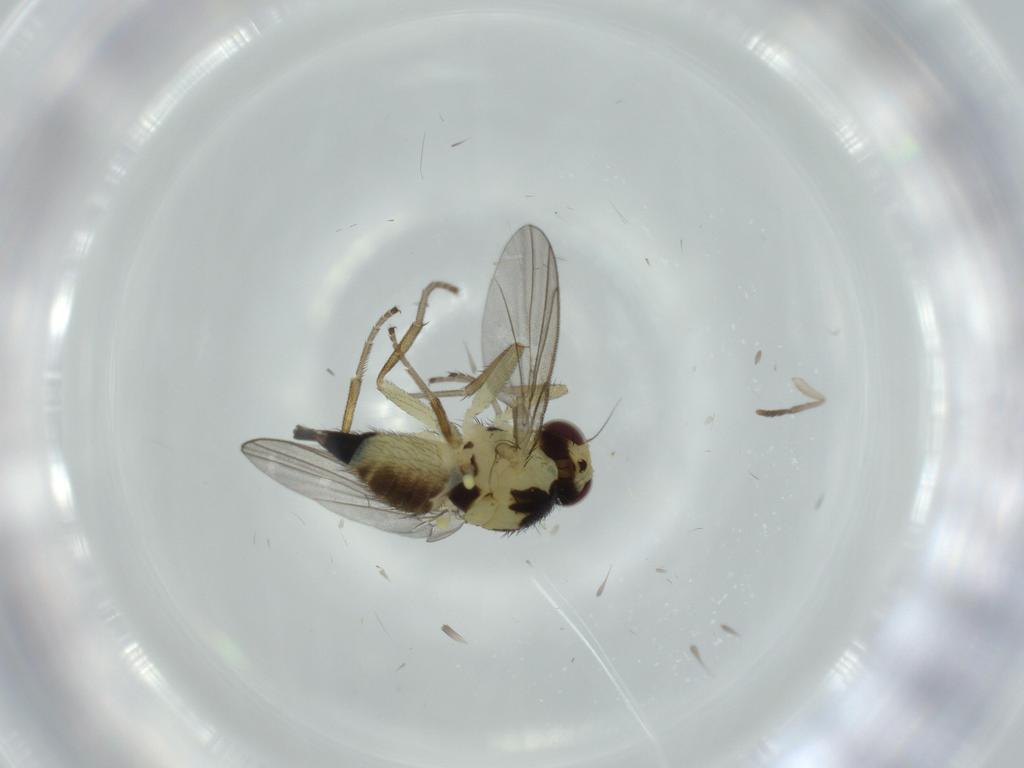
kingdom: Animalia
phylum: Arthropoda
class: Insecta
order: Diptera
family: Agromyzidae
